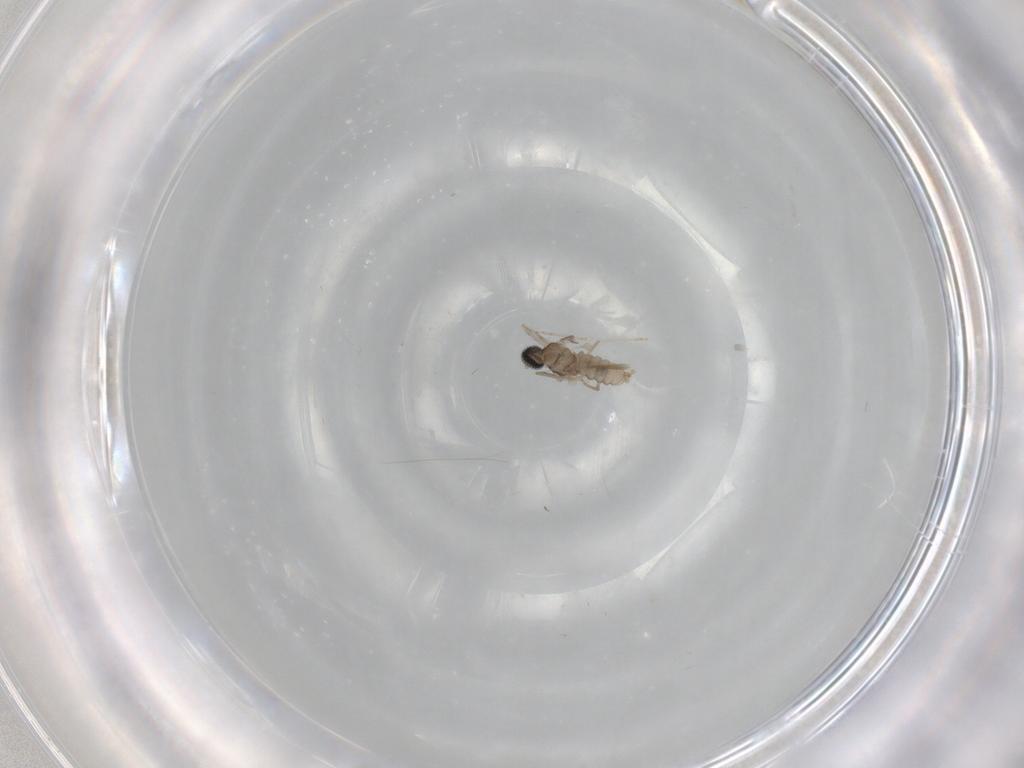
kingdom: Animalia
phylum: Arthropoda
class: Insecta
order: Diptera
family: Cecidomyiidae
